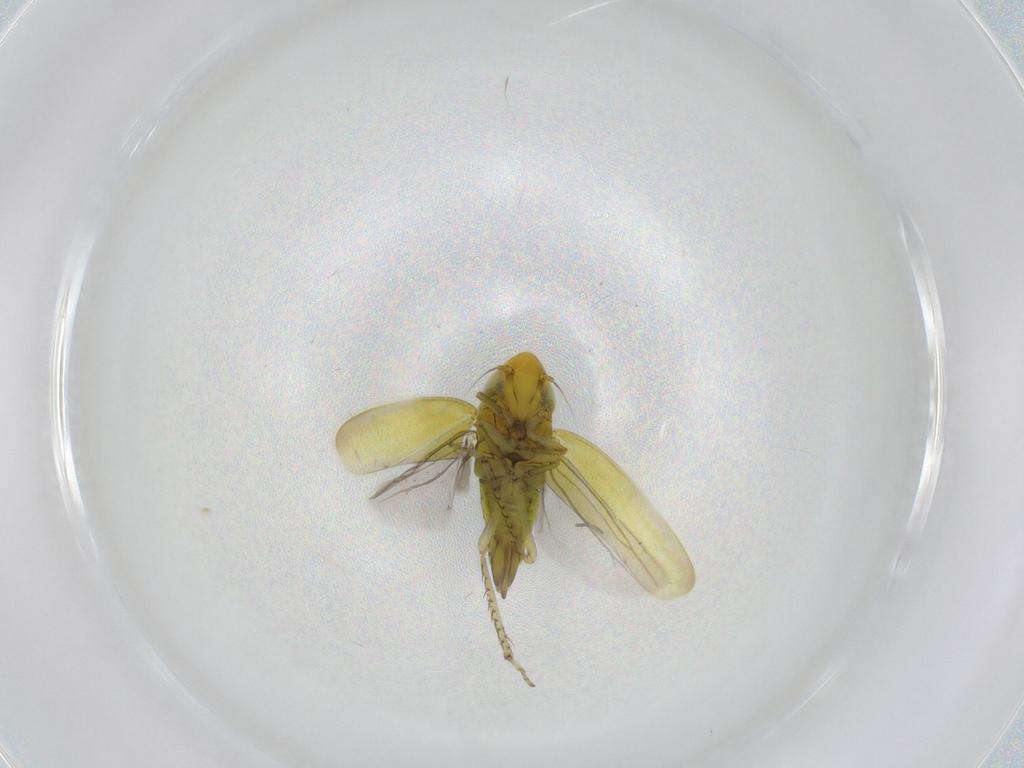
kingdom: Animalia
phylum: Arthropoda
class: Insecta
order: Hemiptera
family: Cicadellidae
